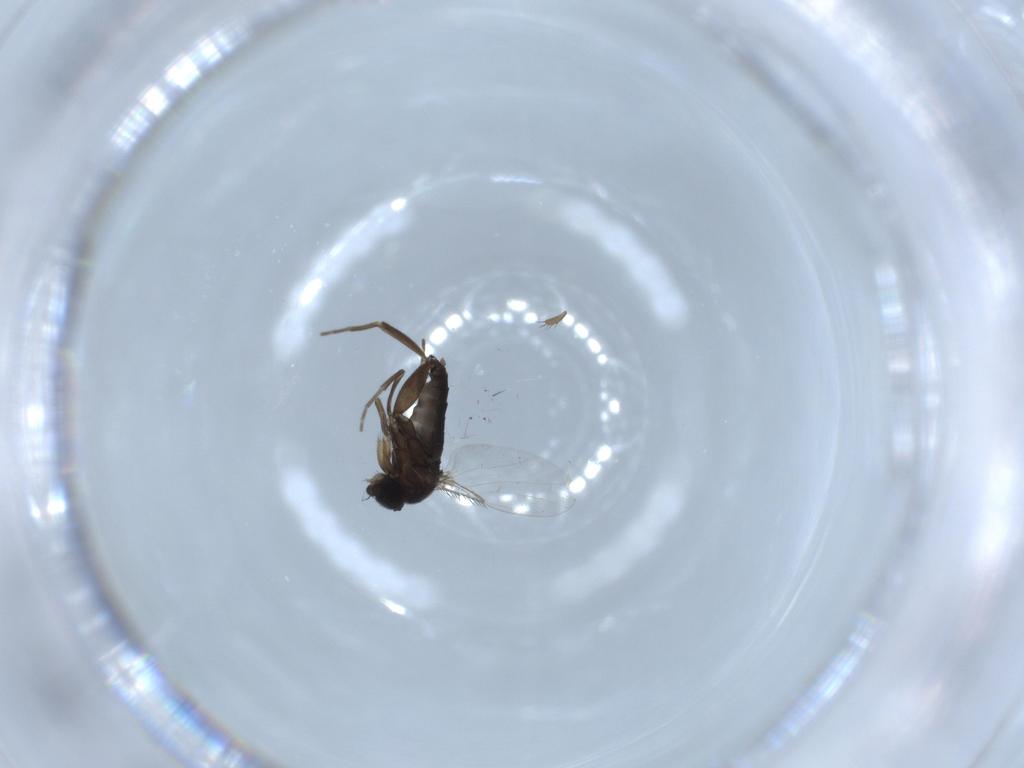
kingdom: Animalia
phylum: Arthropoda
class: Insecta
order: Diptera
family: Phoridae
